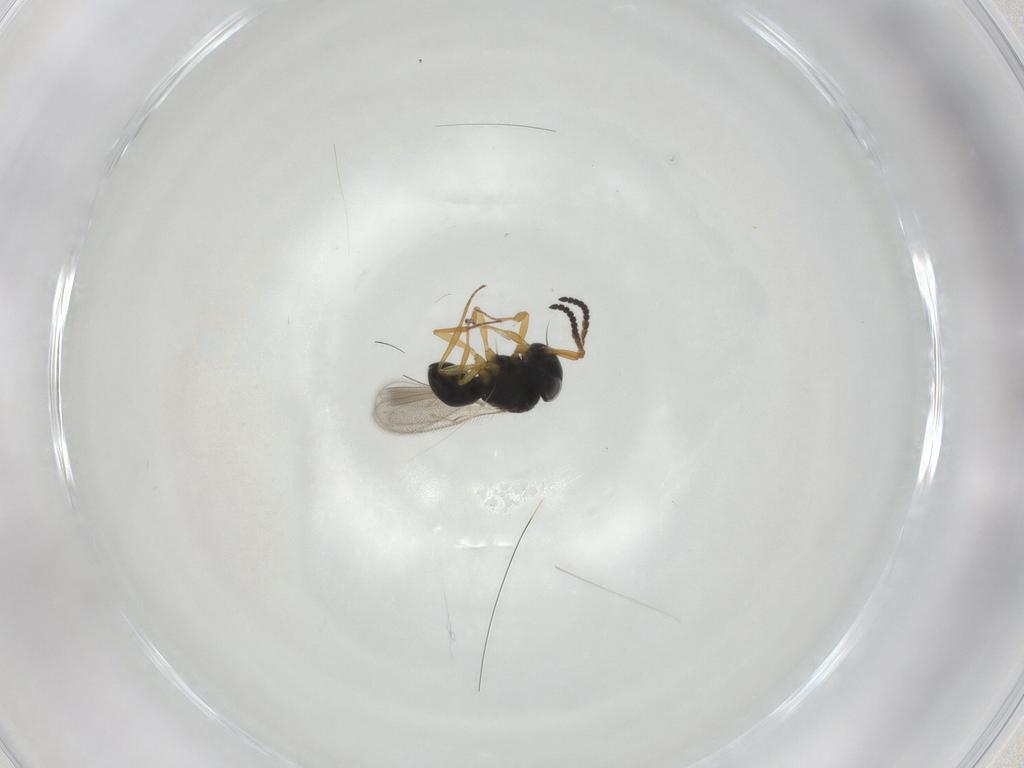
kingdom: Animalia
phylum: Arthropoda
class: Insecta
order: Hymenoptera
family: Scelionidae
